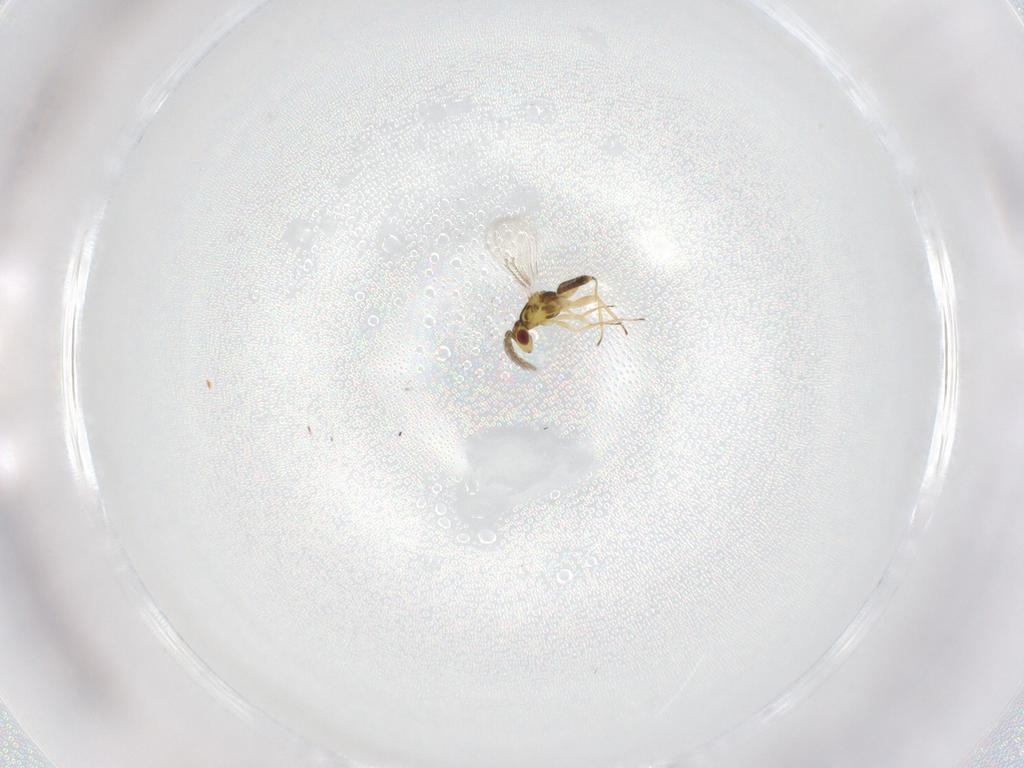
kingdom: Animalia
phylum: Arthropoda
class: Insecta
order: Hymenoptera
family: Eulophidae
